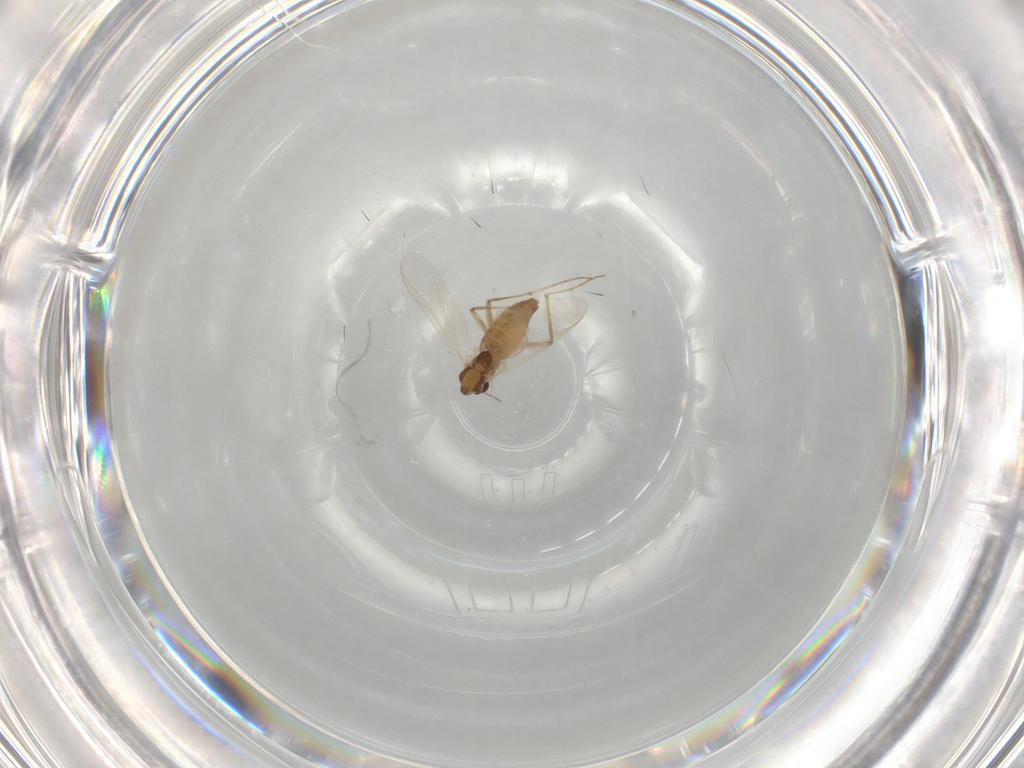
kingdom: Animalia
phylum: Arthropoda
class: Insecta
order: Diptera
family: Chironomidae
